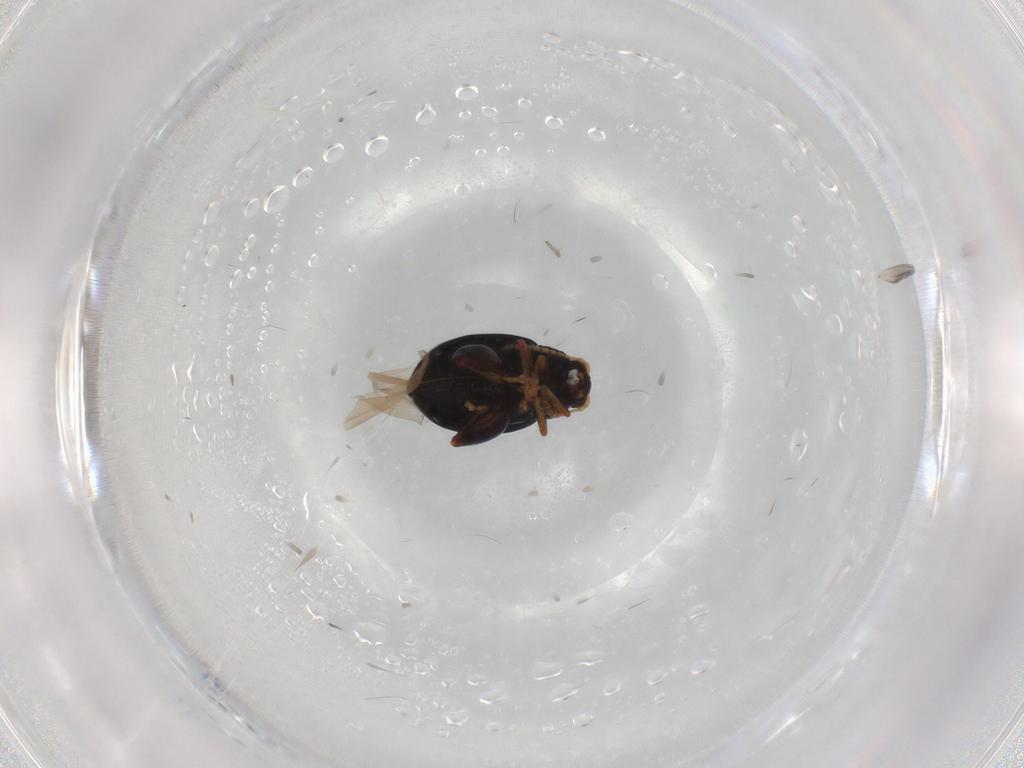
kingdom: Animalia
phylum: Arthropoda
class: Insecta
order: Coleoptera
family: Chrysomelidae
